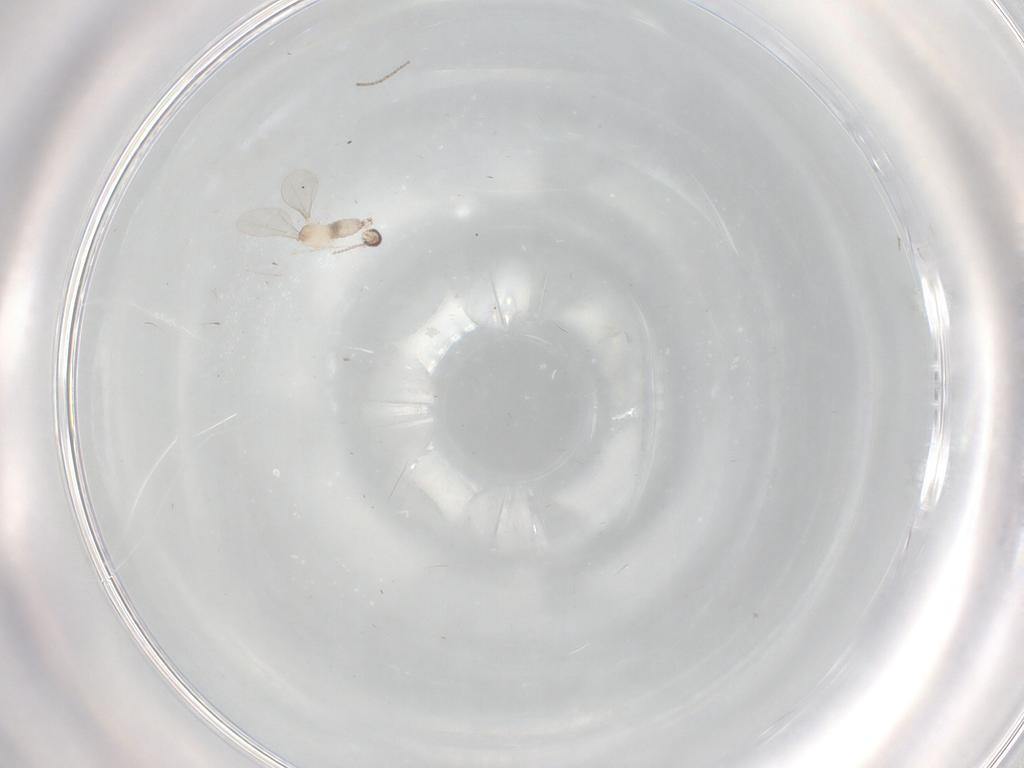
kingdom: Animalia
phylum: Arthropoda
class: Insecta
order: Diptera
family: Cecidomyiidae
